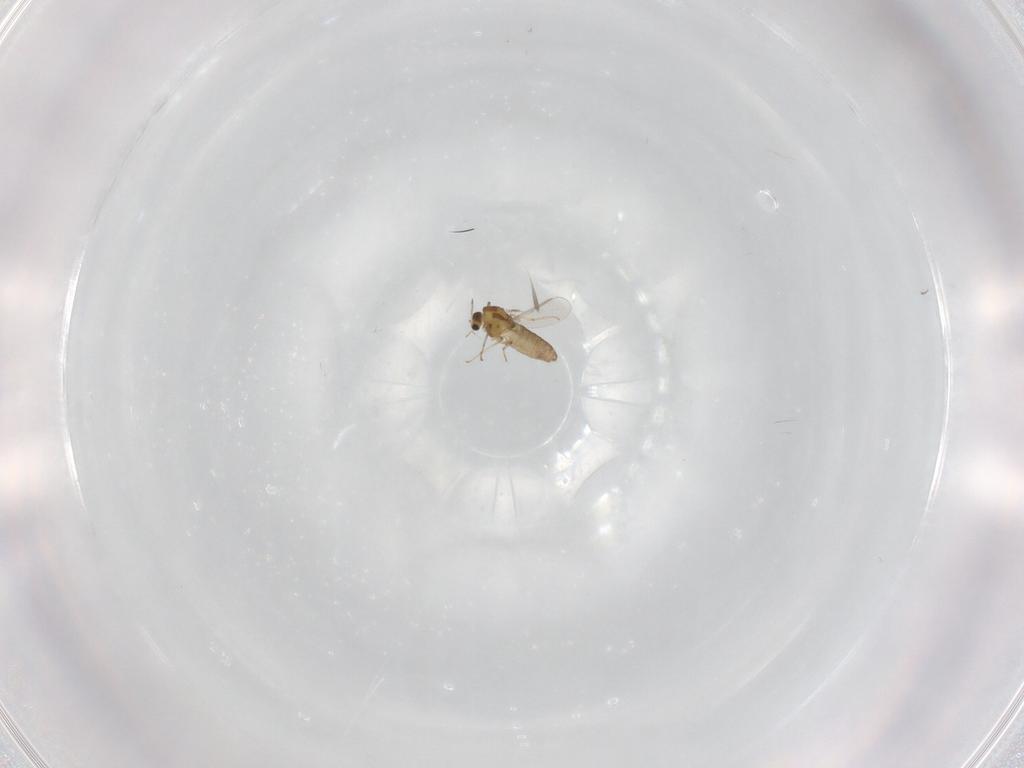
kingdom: Animalia
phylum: Arthropoda
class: Insecta
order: Diptera
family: Chironomidae
